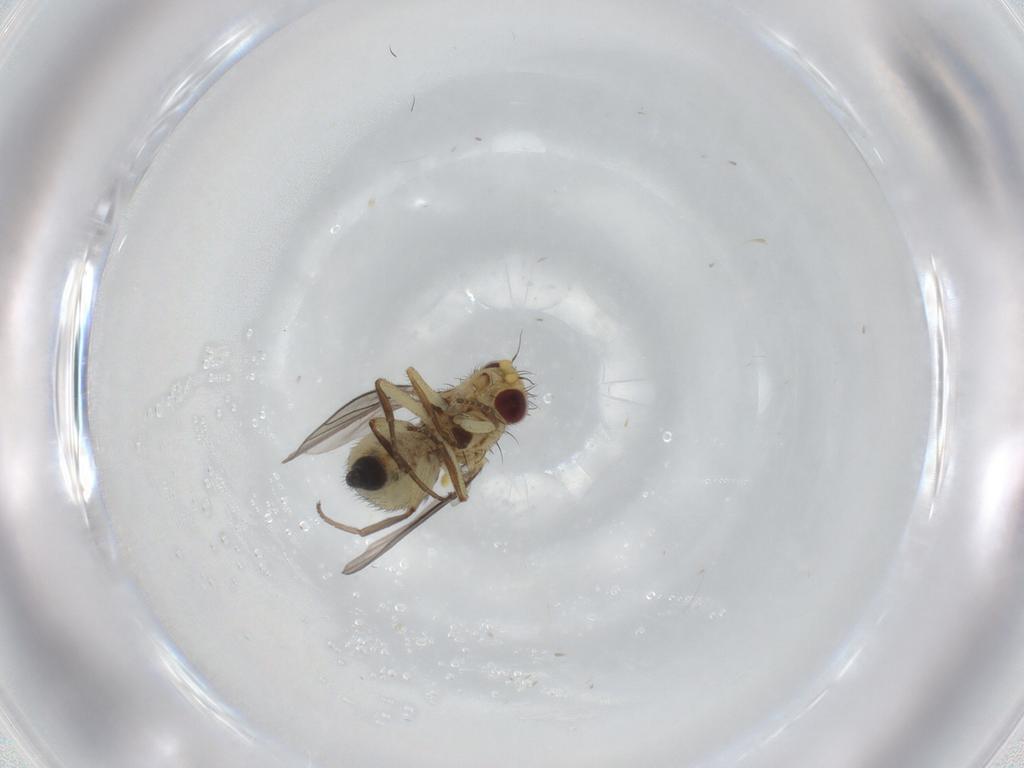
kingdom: Animalia
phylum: Arthropoda
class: Insecta
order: Diptera
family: Agromyzidae
